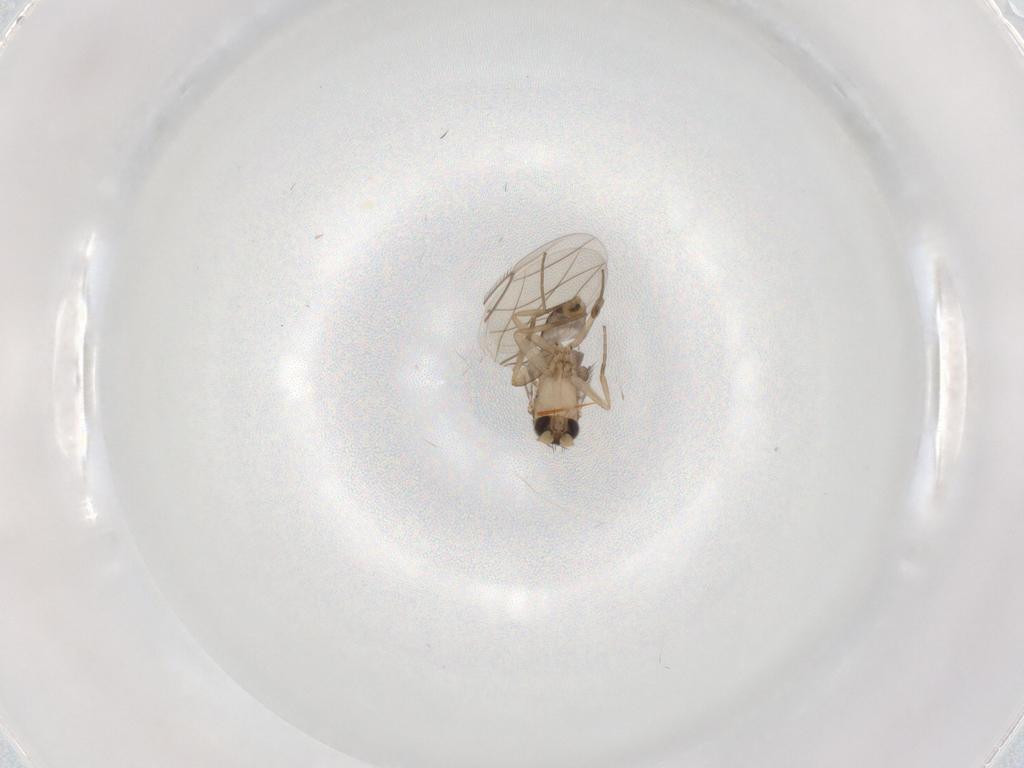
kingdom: Animalia
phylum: Arthropoda
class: Insecta
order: Diptera
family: Phoridae
